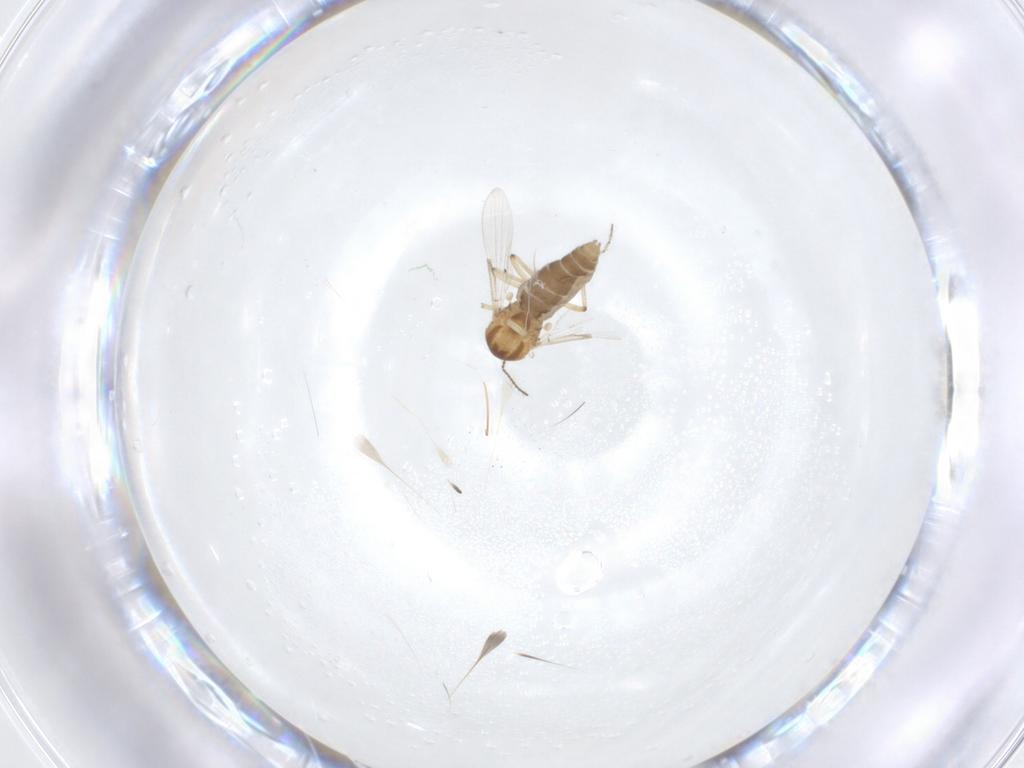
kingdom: Animalia
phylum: Arthropoda
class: Insecta
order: Diptera
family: Ceratopogonidae
